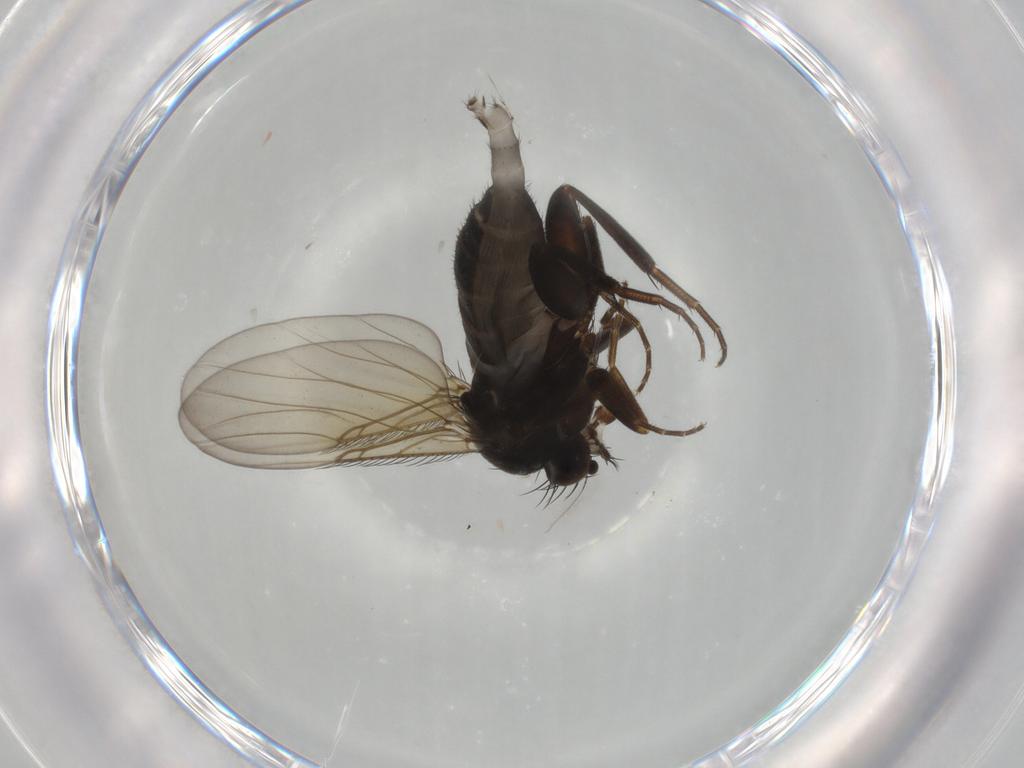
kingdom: Animalia
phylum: Arthropoda
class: Insecta
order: Diptera
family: Phoridae
